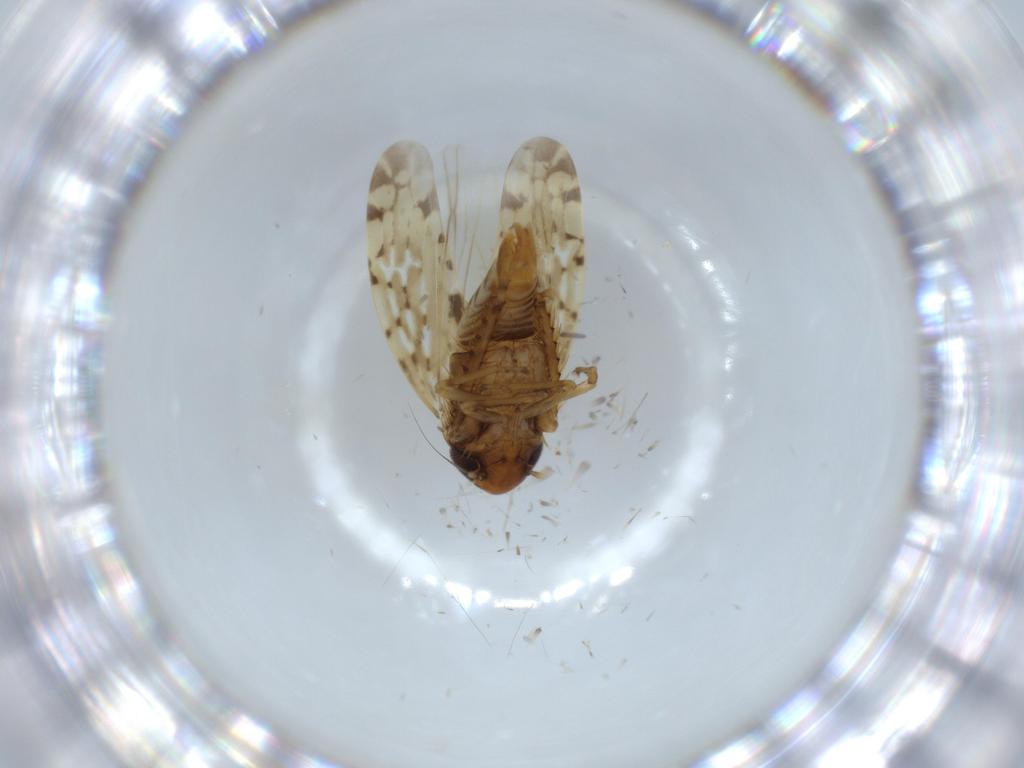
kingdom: Animalia
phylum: Arthropoda
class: Insecta
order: Hemiptera
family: Cicadellidae
